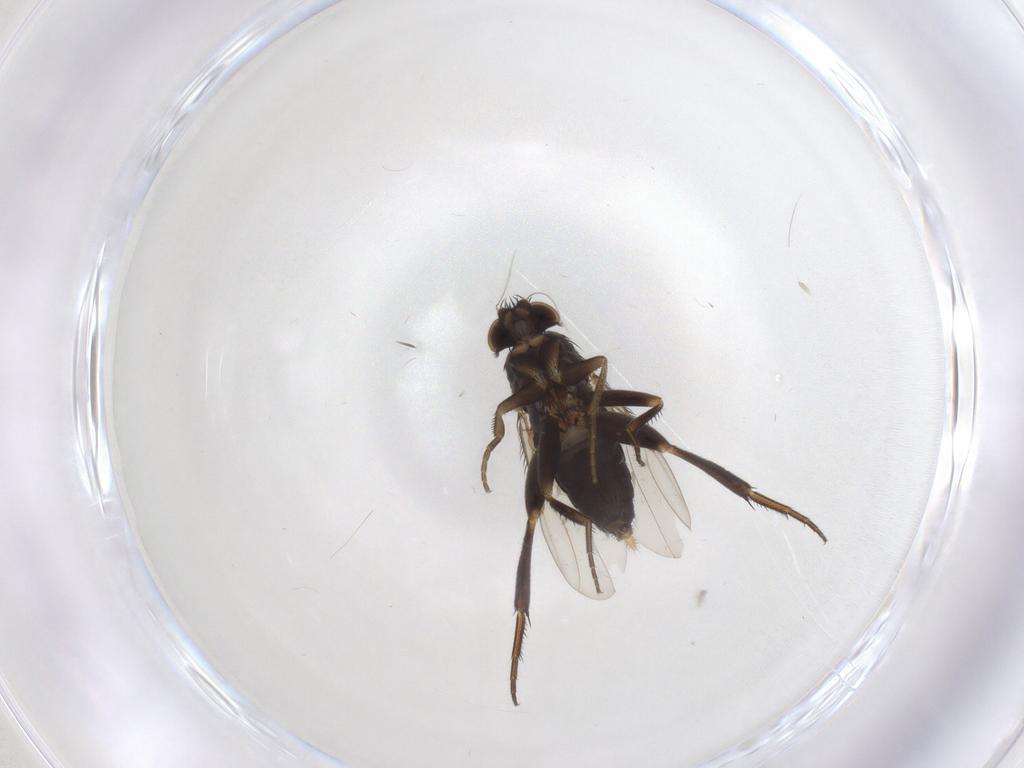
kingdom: Animalia
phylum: Arthropoda
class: Insecta
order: Diptera
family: Phoridae
